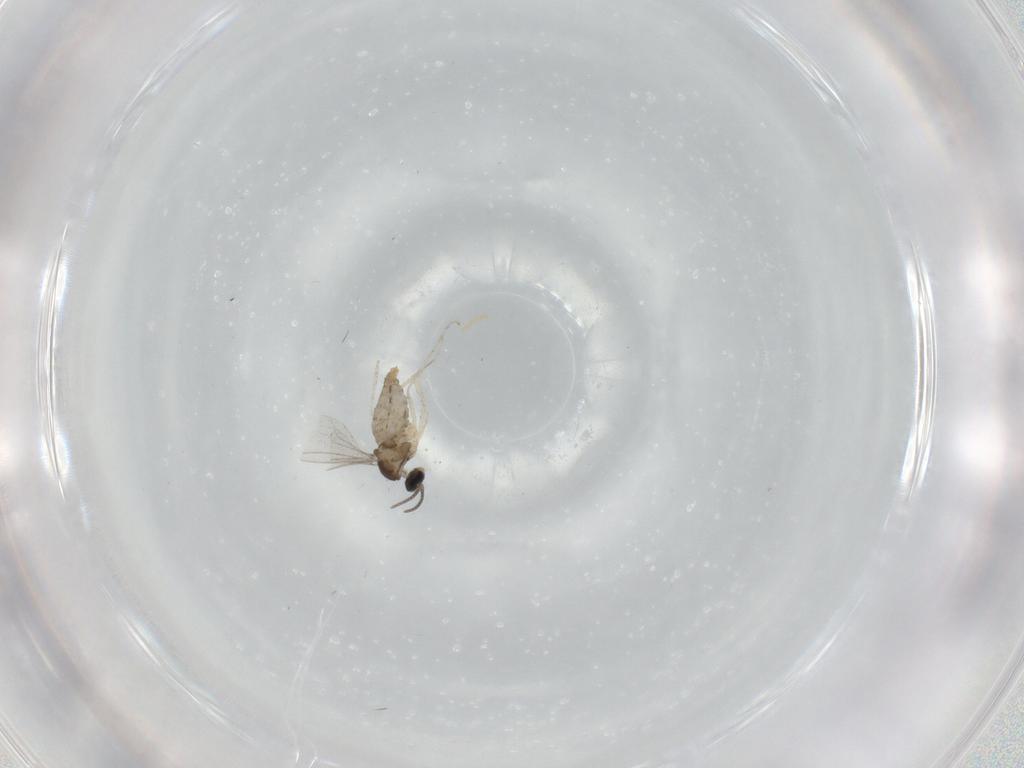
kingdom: Animalia
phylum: Arthropoda
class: Insecta
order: Diptera
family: Cecidomyiidae
